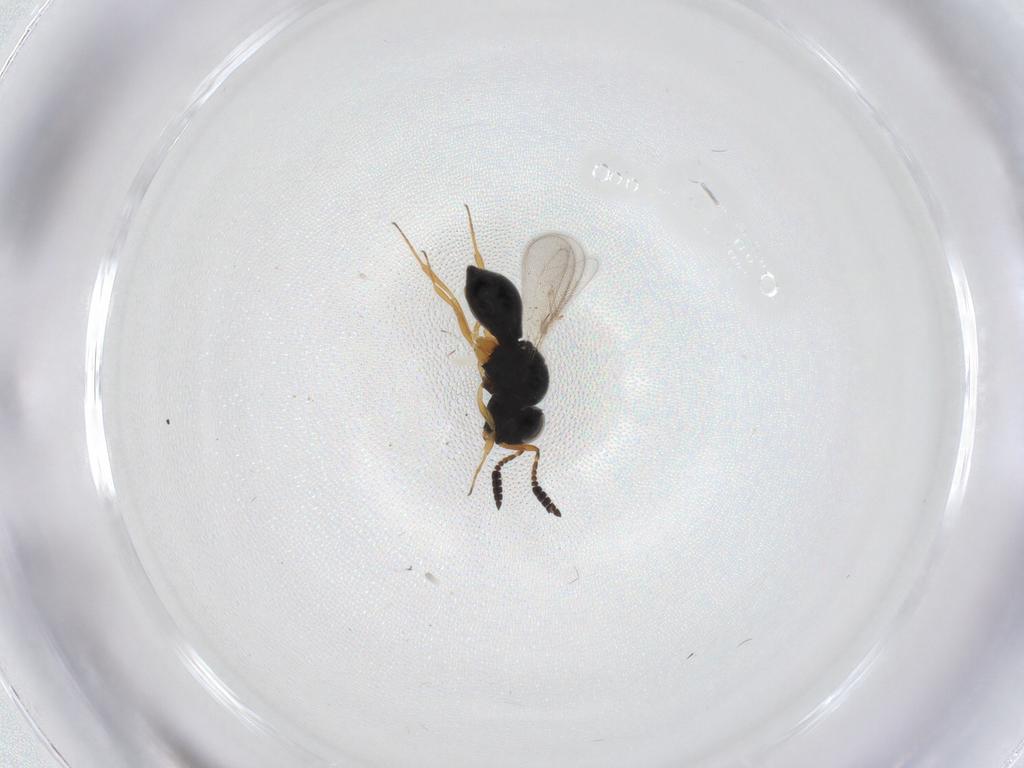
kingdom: Animalia
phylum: Arthropoda
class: Insecta
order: Hymenoptera
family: Scelionidae
